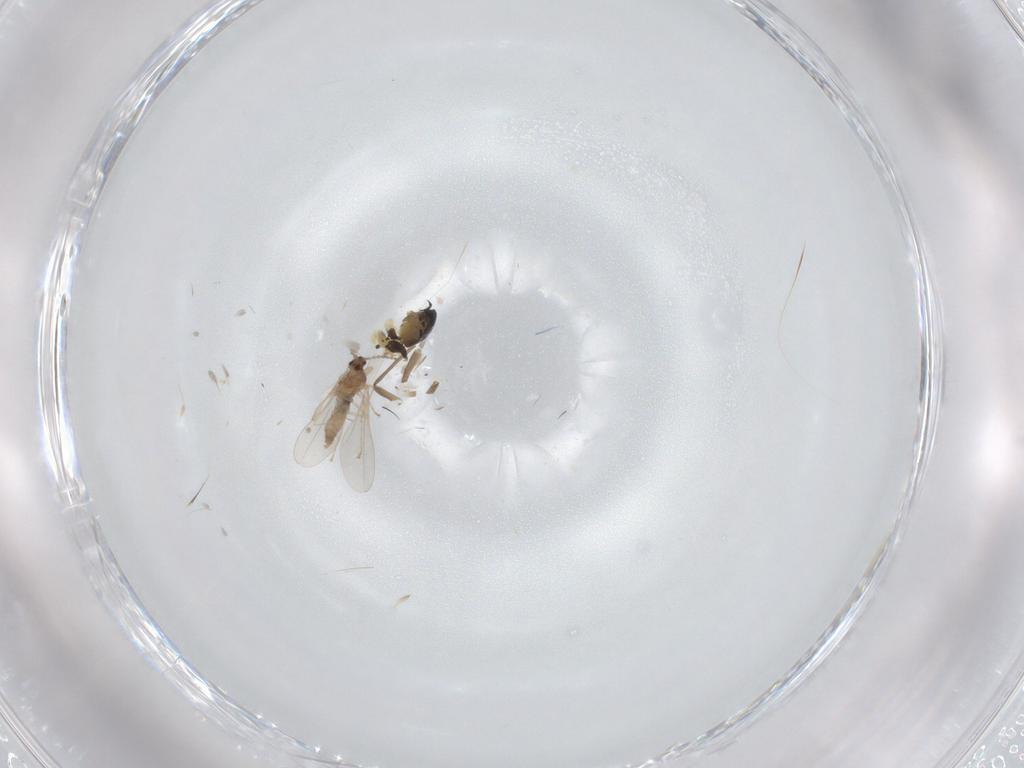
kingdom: Animalia
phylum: Arthropoda
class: Insecta
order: Diptera
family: Chironomidae
